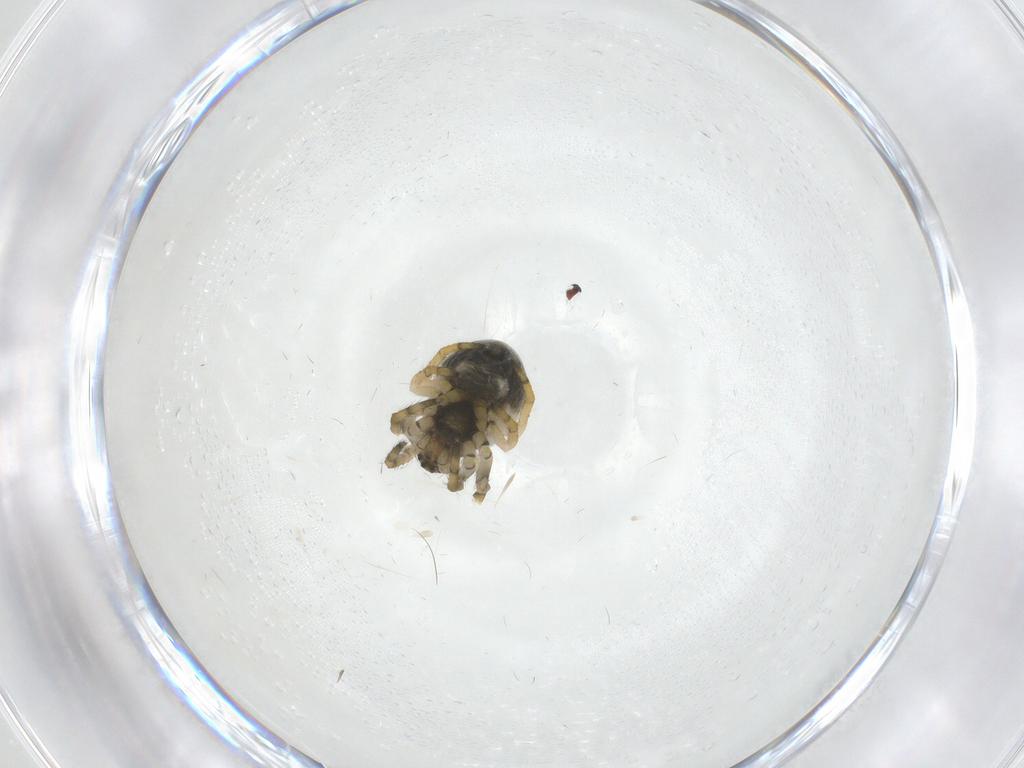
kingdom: Animalia
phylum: Arthropoda
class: Arachnida
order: Araneae
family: Araneidae
